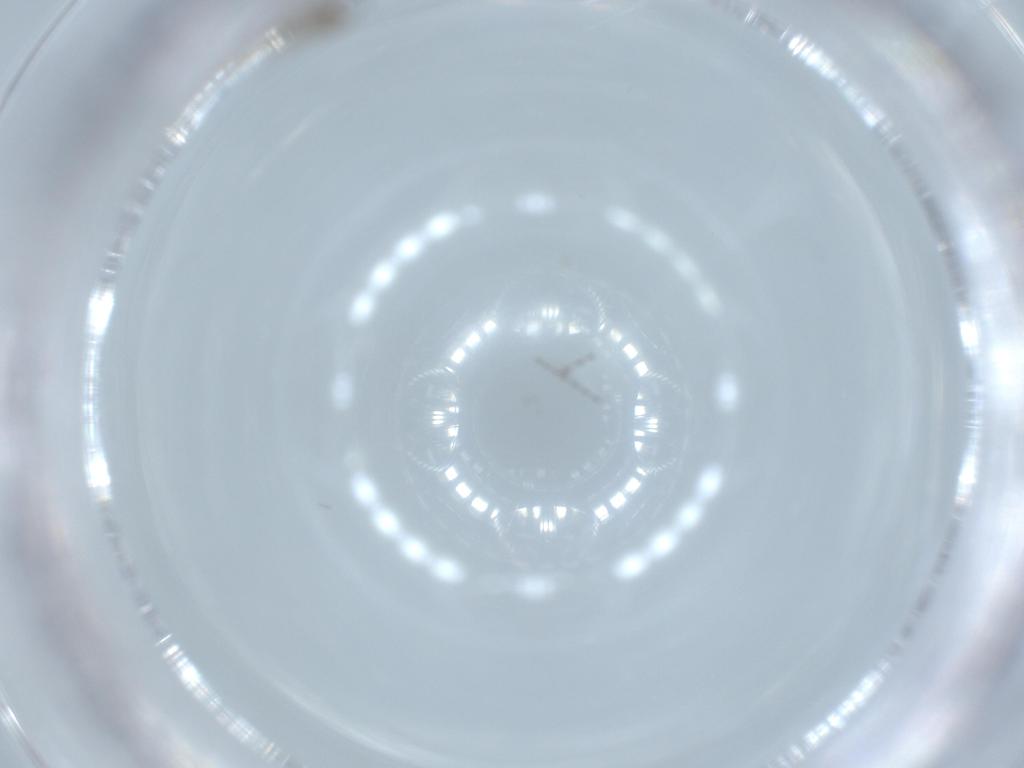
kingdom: Animalia
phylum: Arthropoda
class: Insecta
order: Diptera
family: Cecidomyiidae
